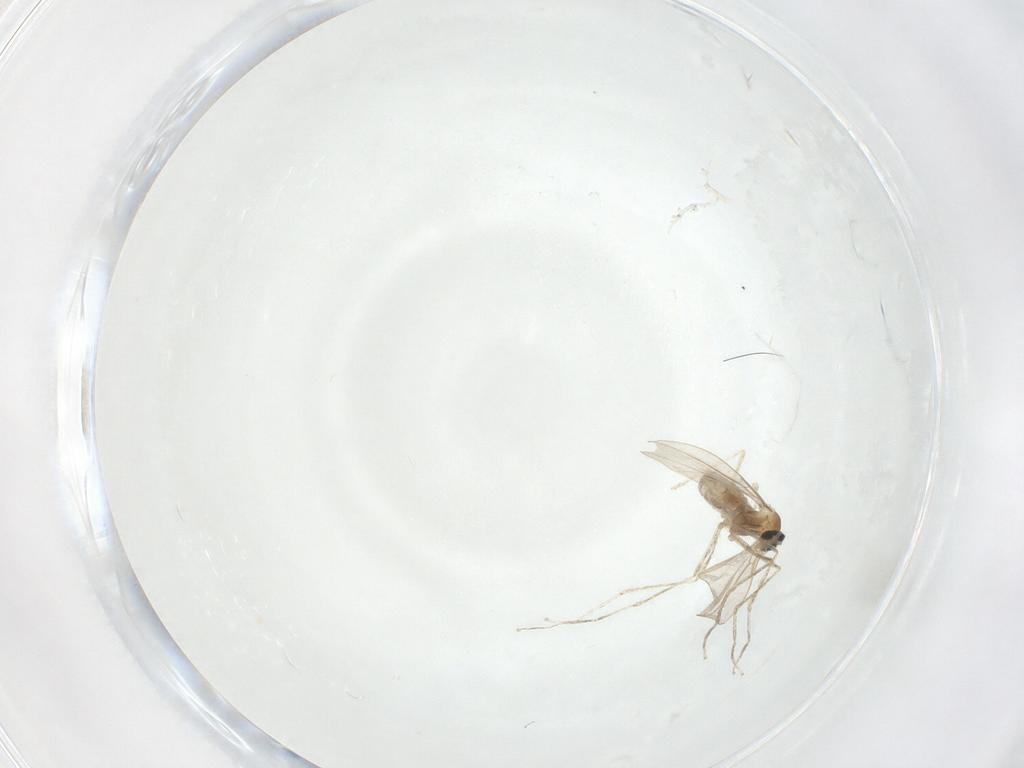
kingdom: Animalia
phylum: Arthropoda
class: Insecta
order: Diptera
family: Cecidomyiidae
